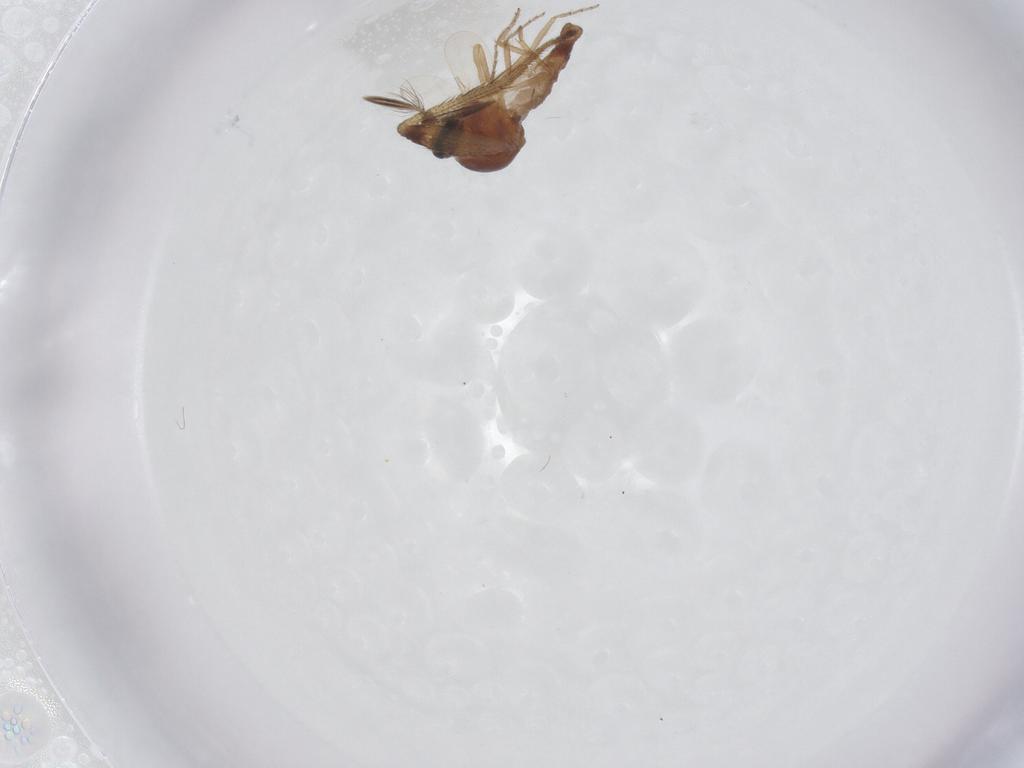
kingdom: Animalia
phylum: Arthropoda
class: Insecta
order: Diptera
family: Ceratopogonidae
